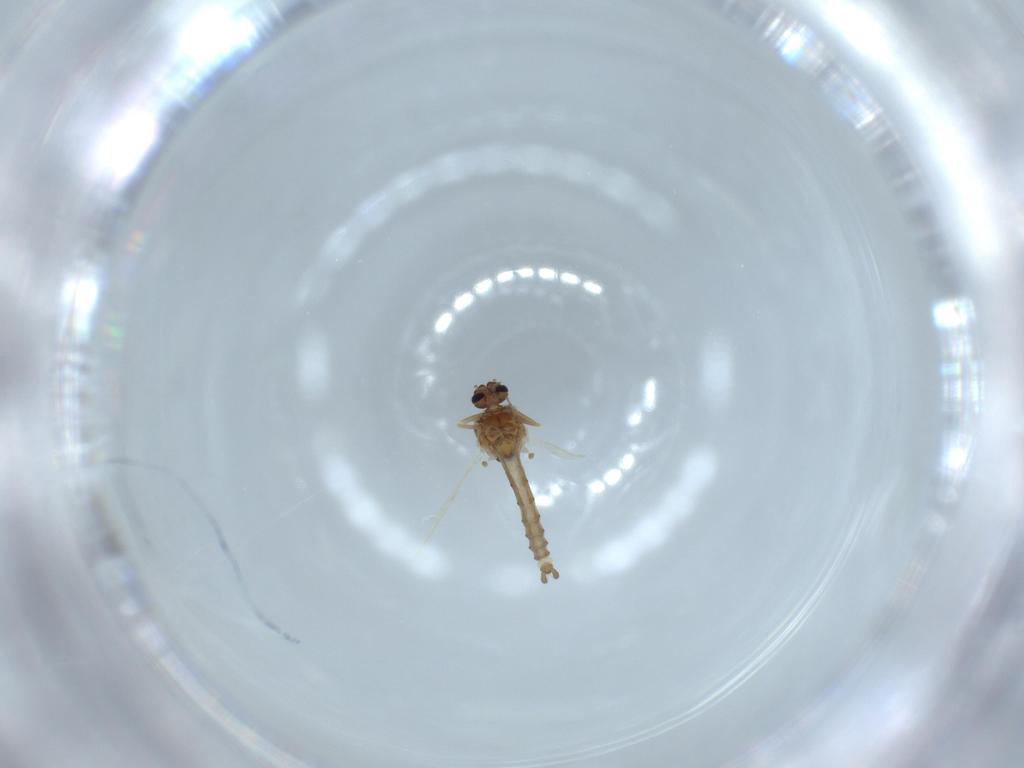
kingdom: Animalia
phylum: Arthropoda
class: Insecta
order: Diptera
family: Ceratopogonidae
